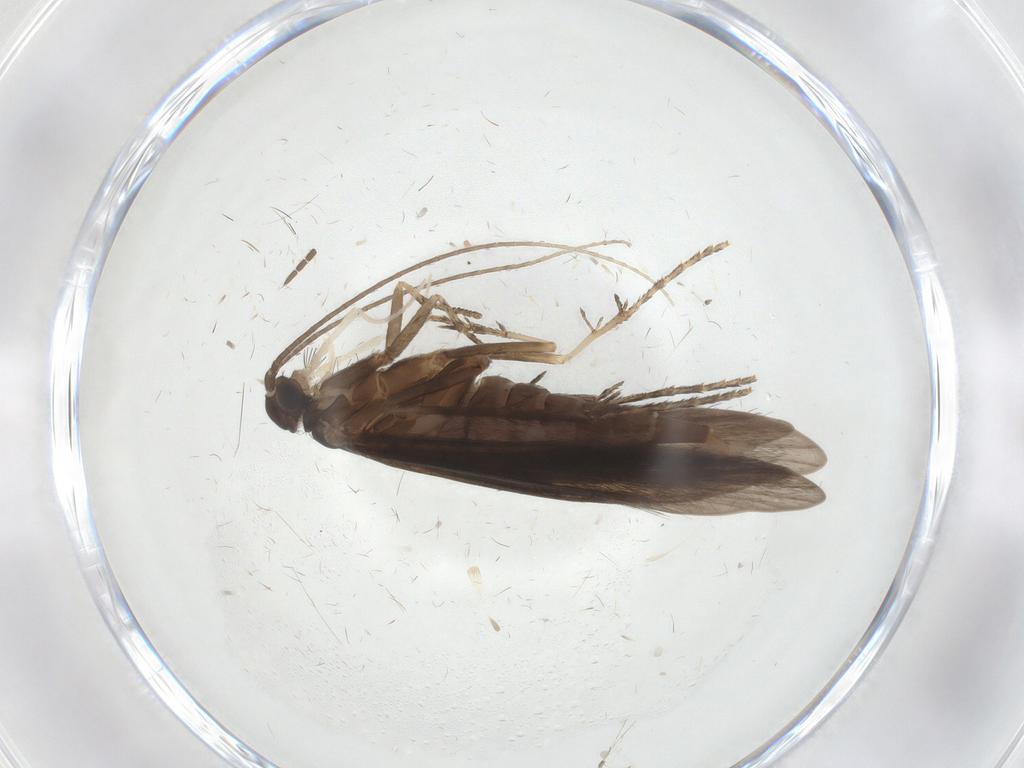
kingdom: Animalia
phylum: Arthropoda
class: Insecta
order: Trichoptera
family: Xiphocentronidae
